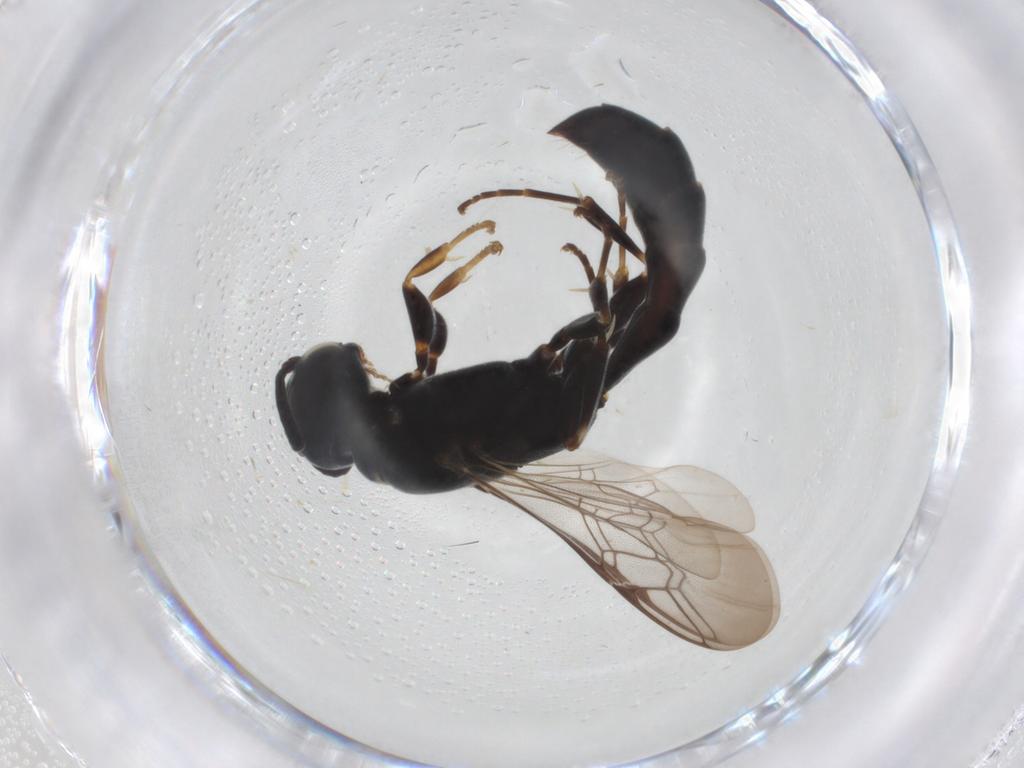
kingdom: Animalia
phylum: Arthropoda
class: Insecta
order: Hymenoptera
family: Crabronidae
